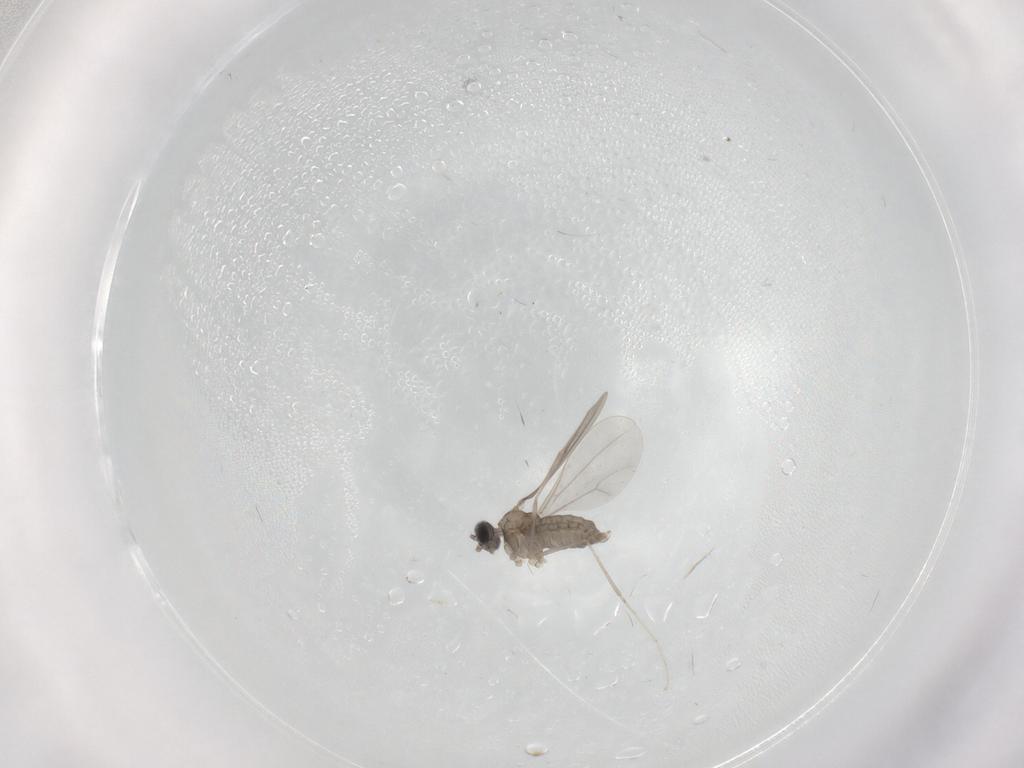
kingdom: Animalia
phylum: Arthropoda
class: Insecta
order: Diptera
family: Cecidomyiidae
